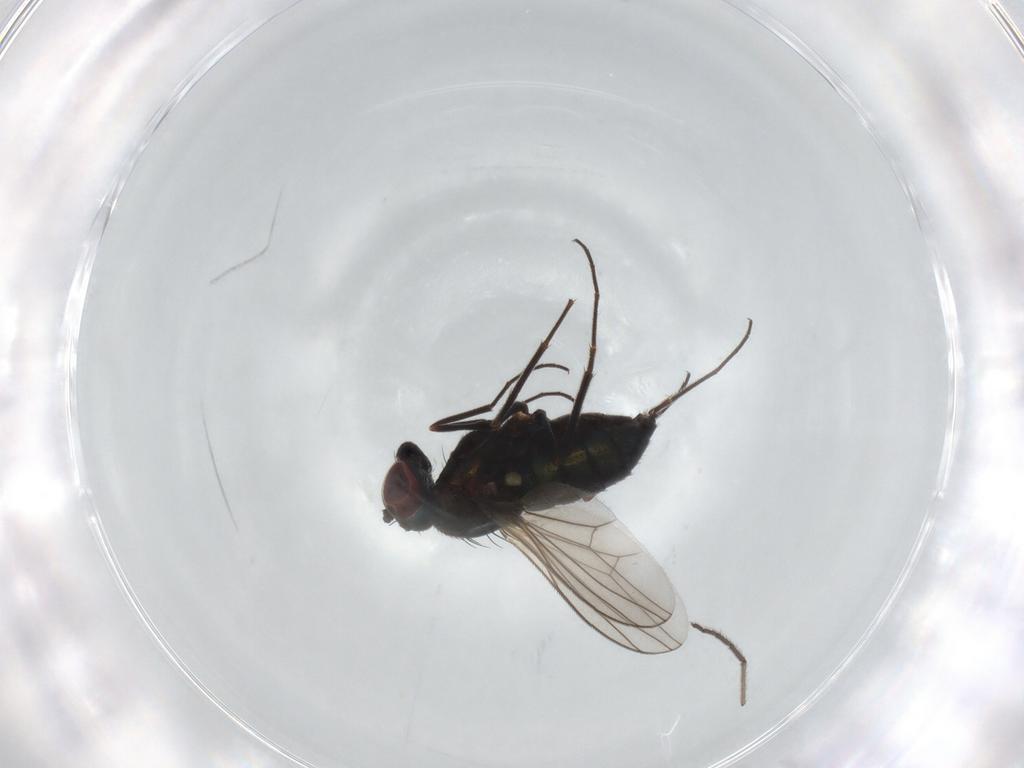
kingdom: Animalia
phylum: Arthropoda
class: Insecta
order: Diptera
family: Dolichopodidae
